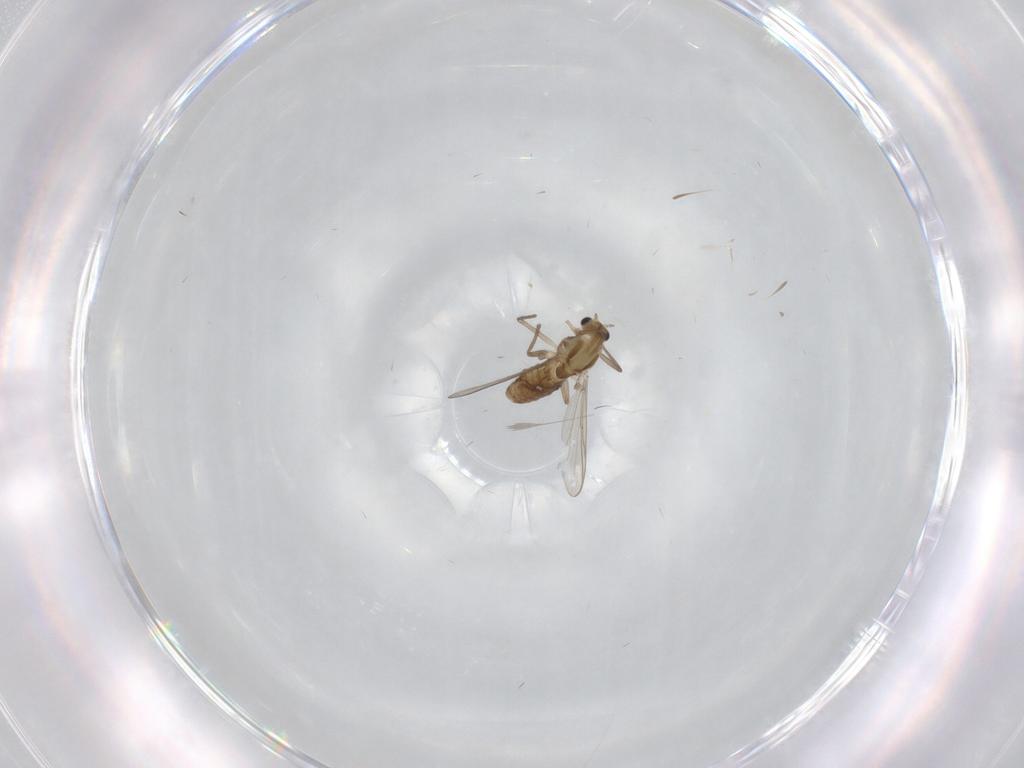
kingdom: Animalia
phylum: Arthropoda
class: Insecta
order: Diptera
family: Chironomidae
